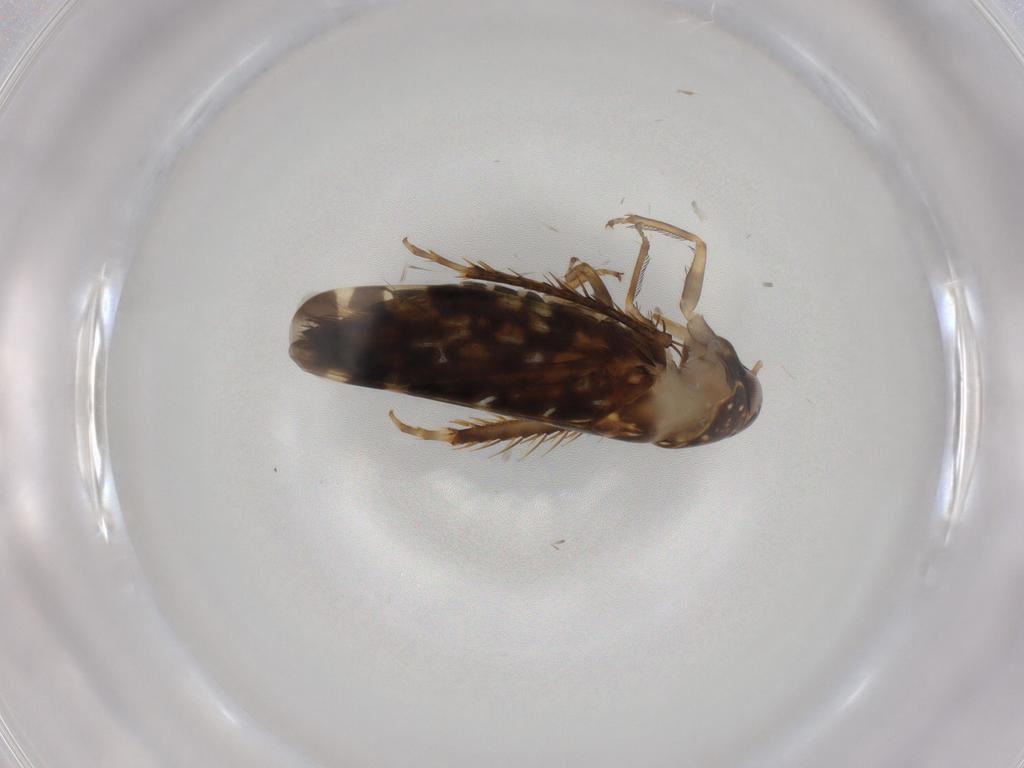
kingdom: Animalia
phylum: Arthropoda
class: Insecta
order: Hemiptera
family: Cicadellidae
